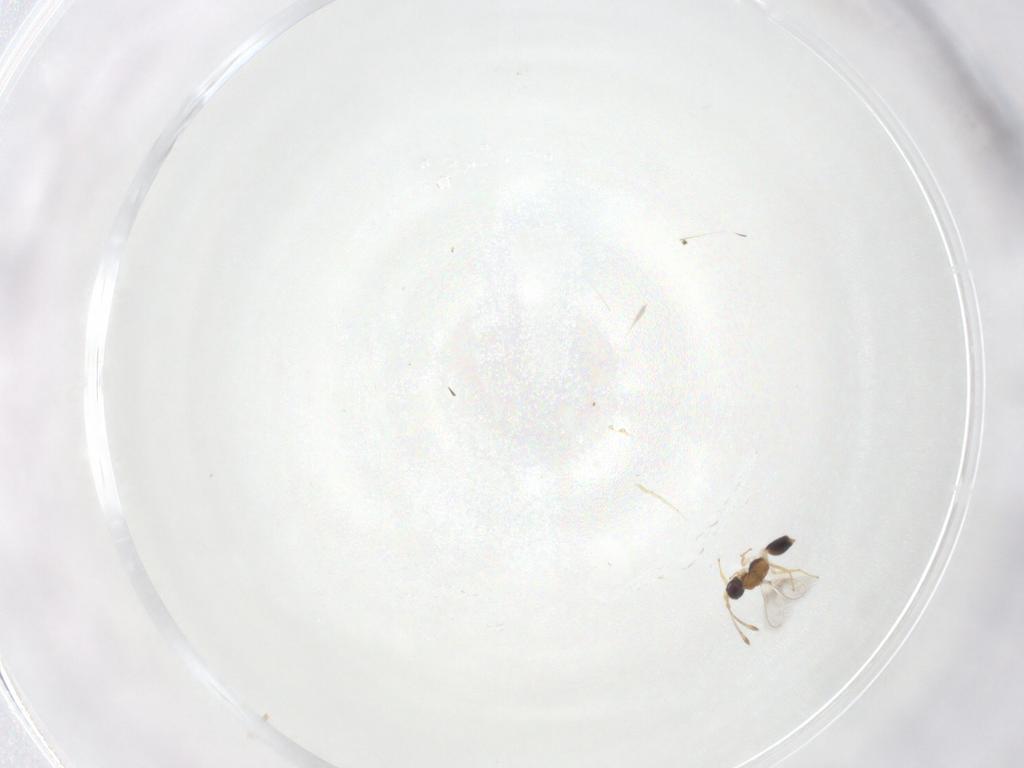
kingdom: Animalia
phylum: Arthropoda
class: Insecta
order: Hymenoptera
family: Mymaridae
